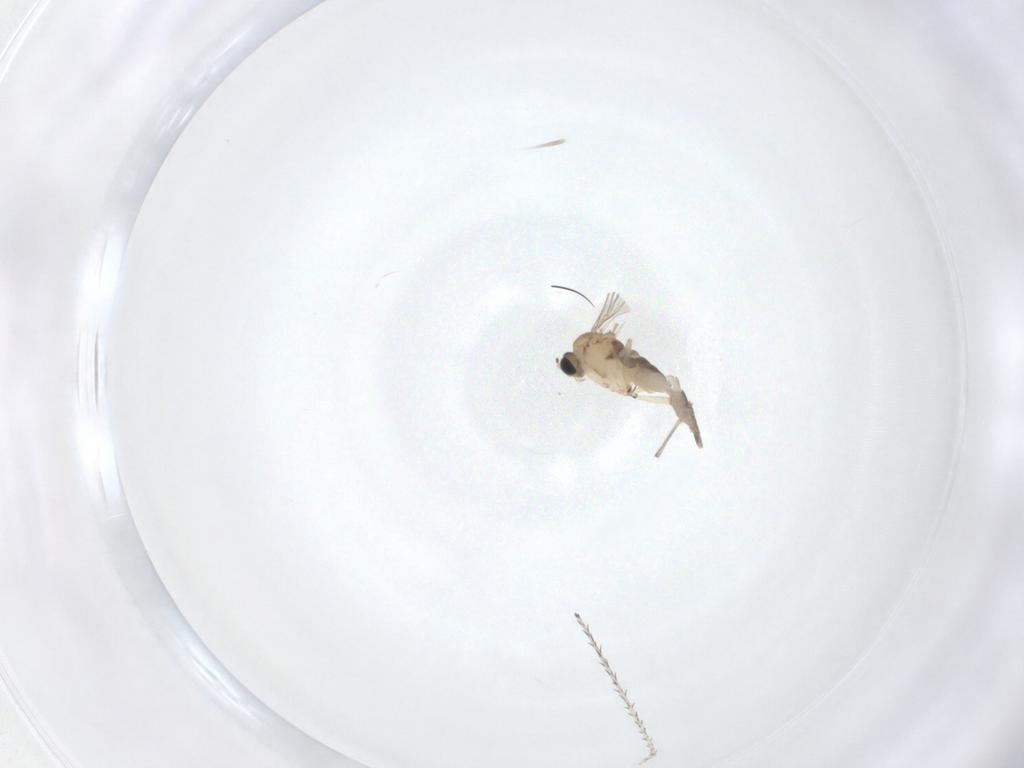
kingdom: Animalia
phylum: Arthropoda
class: Insecta
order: Diptera
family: Sciaridae
